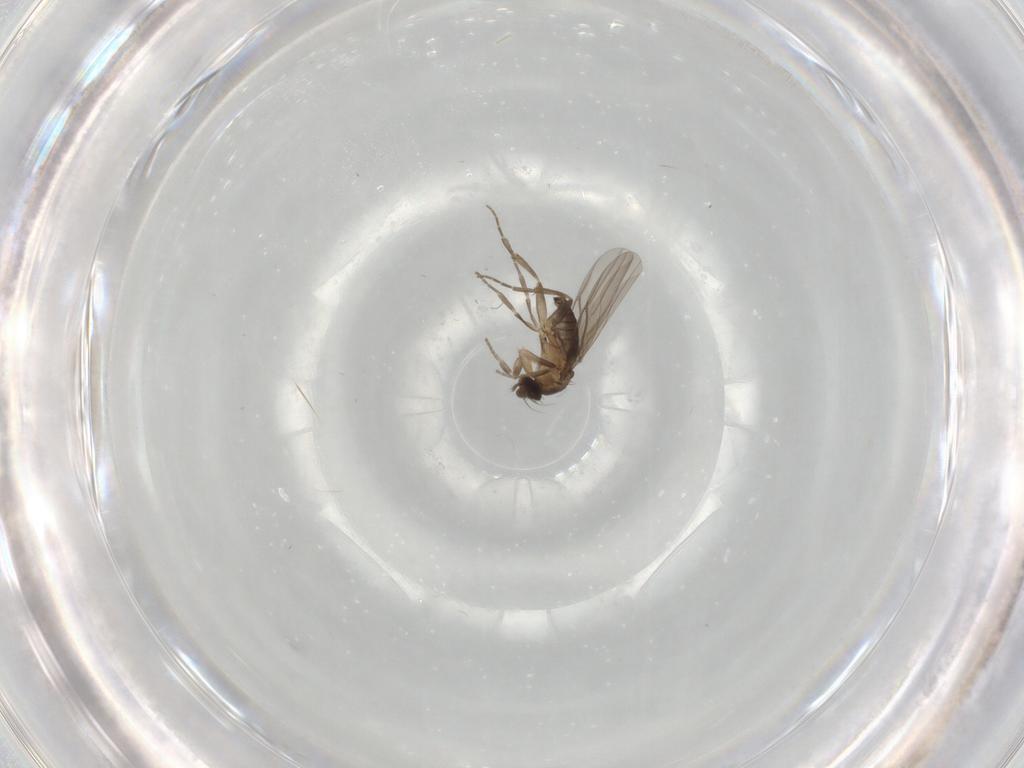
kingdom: Animalia
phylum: Arthropoda
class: Insecta
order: Diptera
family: Phoridae
